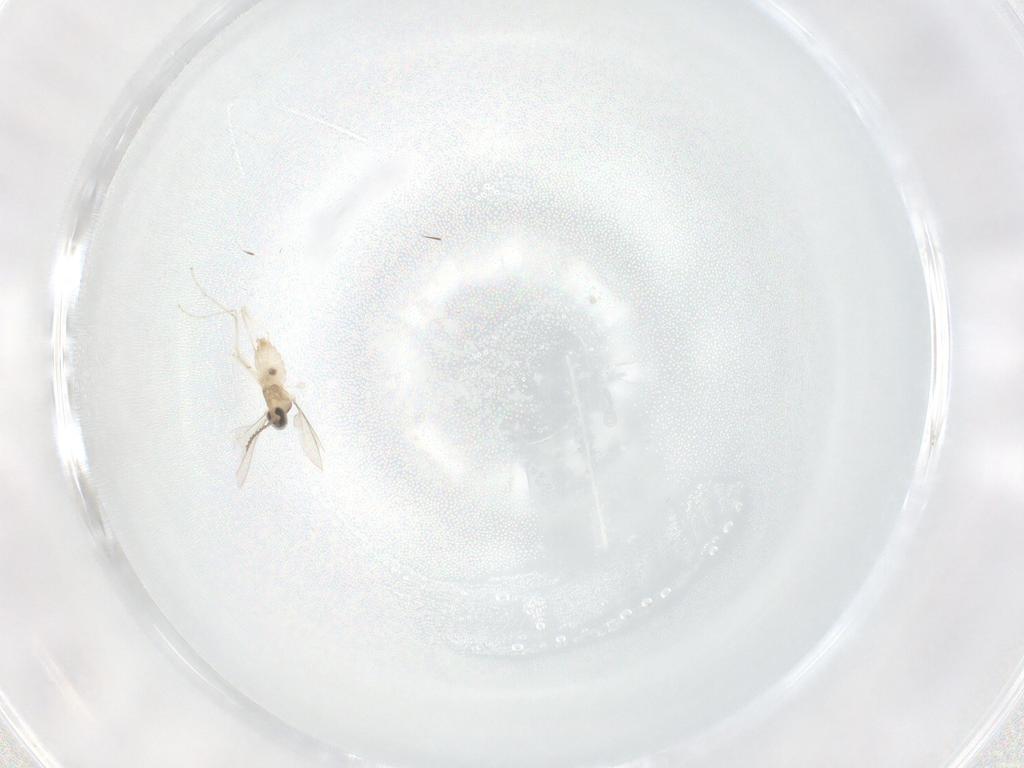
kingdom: Animalia
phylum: Arthropoda
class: Insecta
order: Diptera
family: Cecidomyiidae
